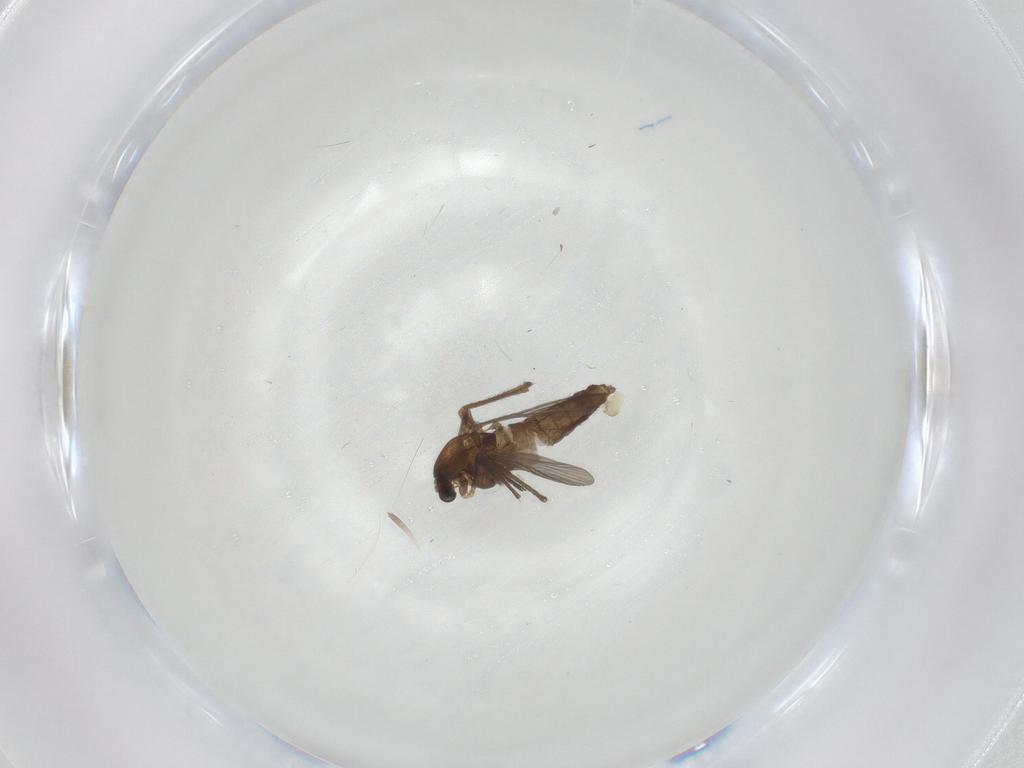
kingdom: Animalia
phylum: Arthropoda
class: Insecta
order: Diptera
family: Chironomidae
